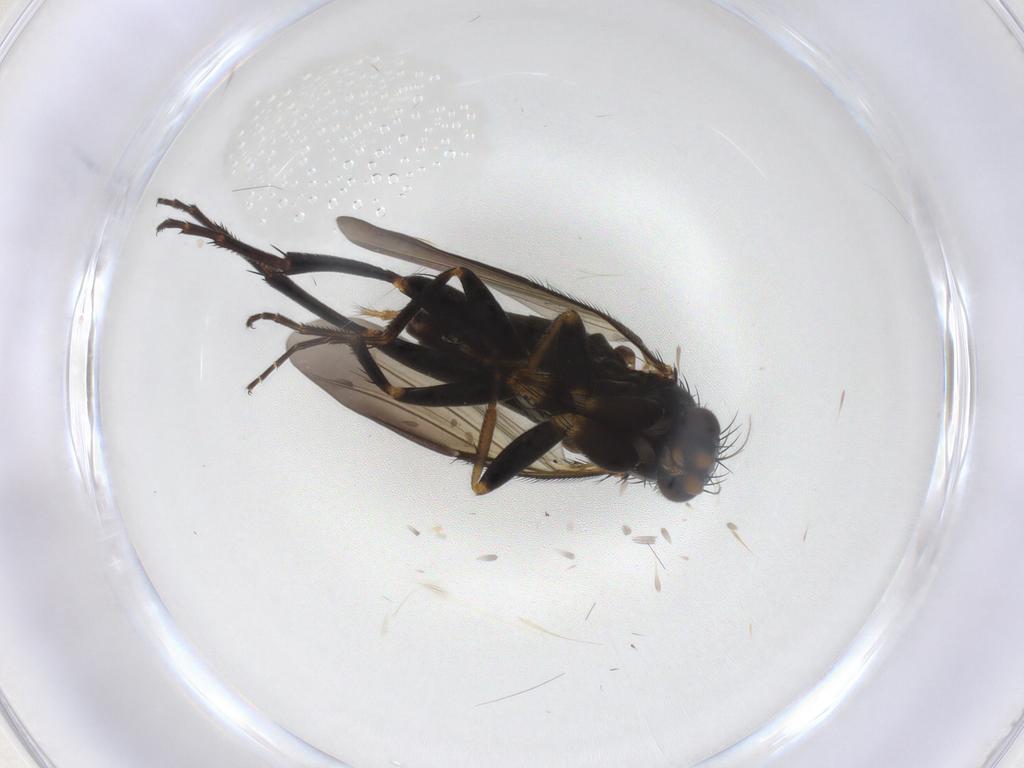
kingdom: Animalia
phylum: Arthropoda
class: Insecta
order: Diptera
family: Phoridae
